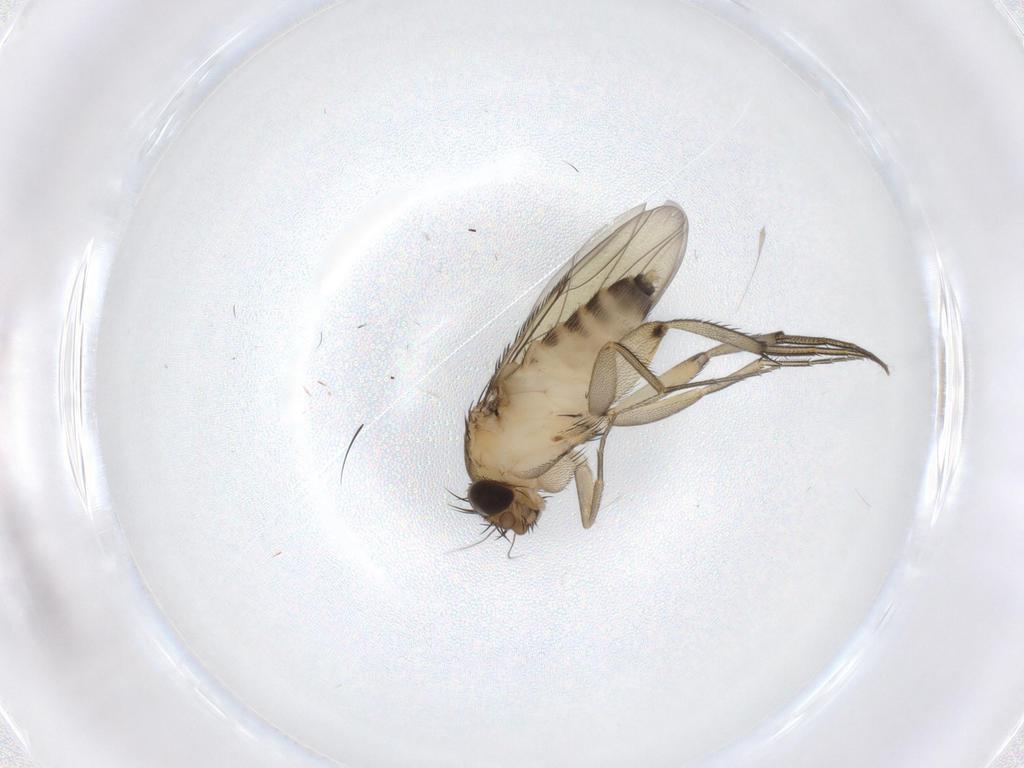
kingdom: Animalia
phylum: Arthropoda
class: Insecta
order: Diptera
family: Phoridae
